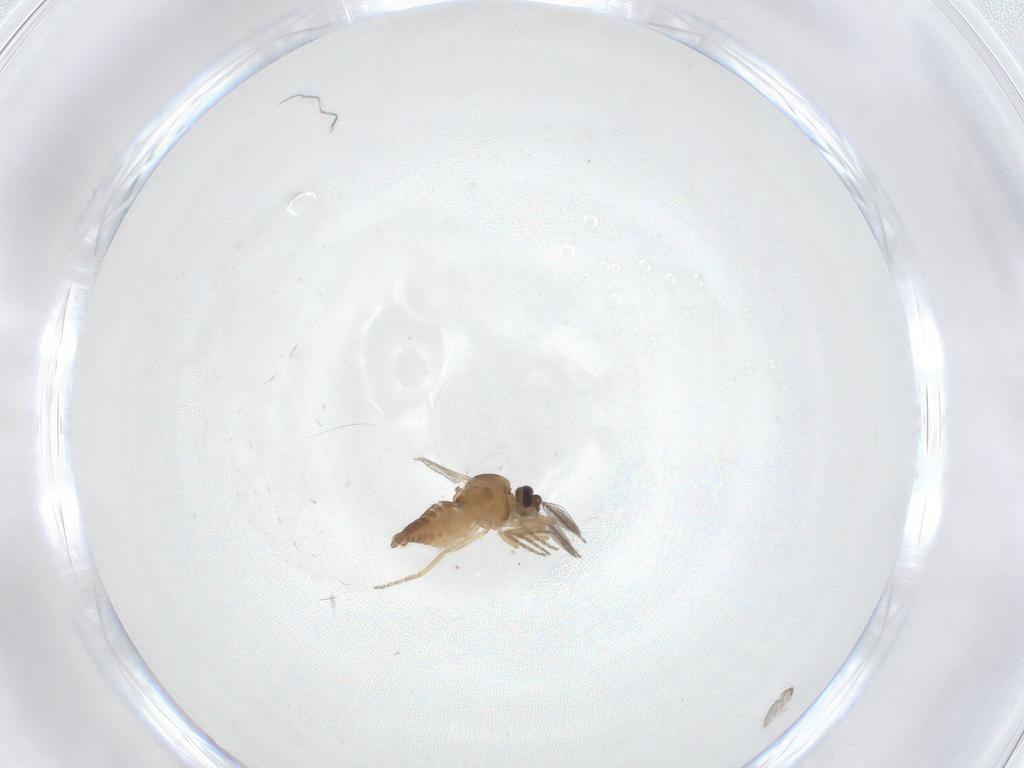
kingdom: Animalia
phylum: Arthropoda
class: Insecta
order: Diptera
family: Ceratopogonidae
